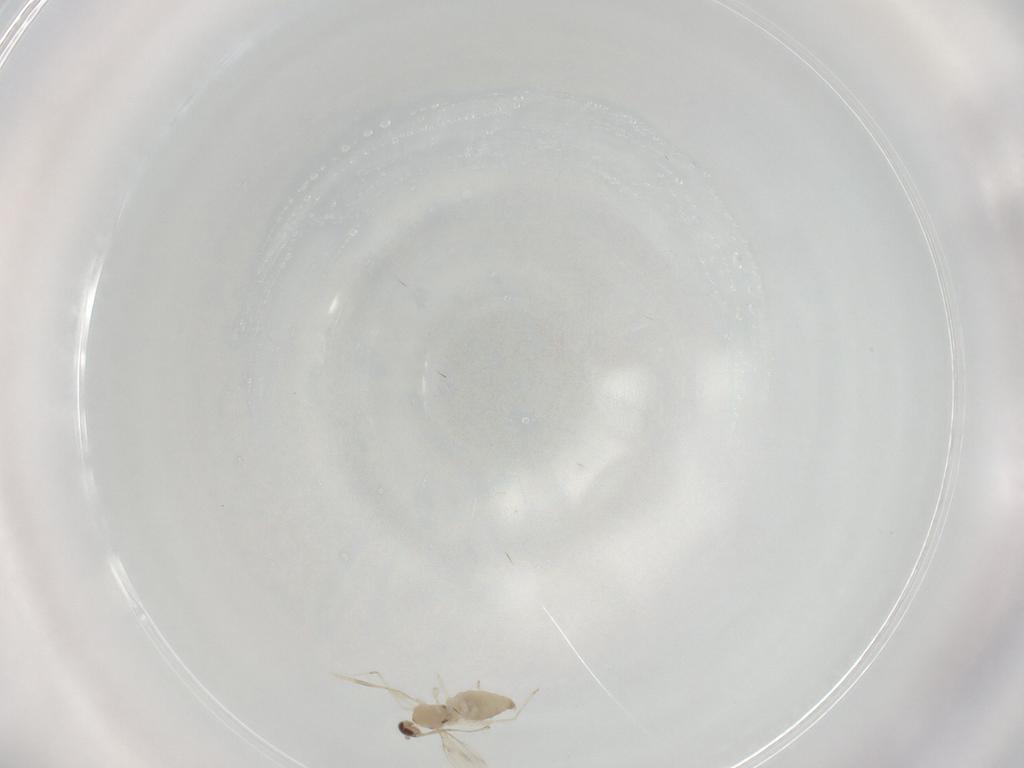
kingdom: Animalia
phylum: Arthropoda
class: Insecta
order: Diptera
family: Cecidomyiidae
